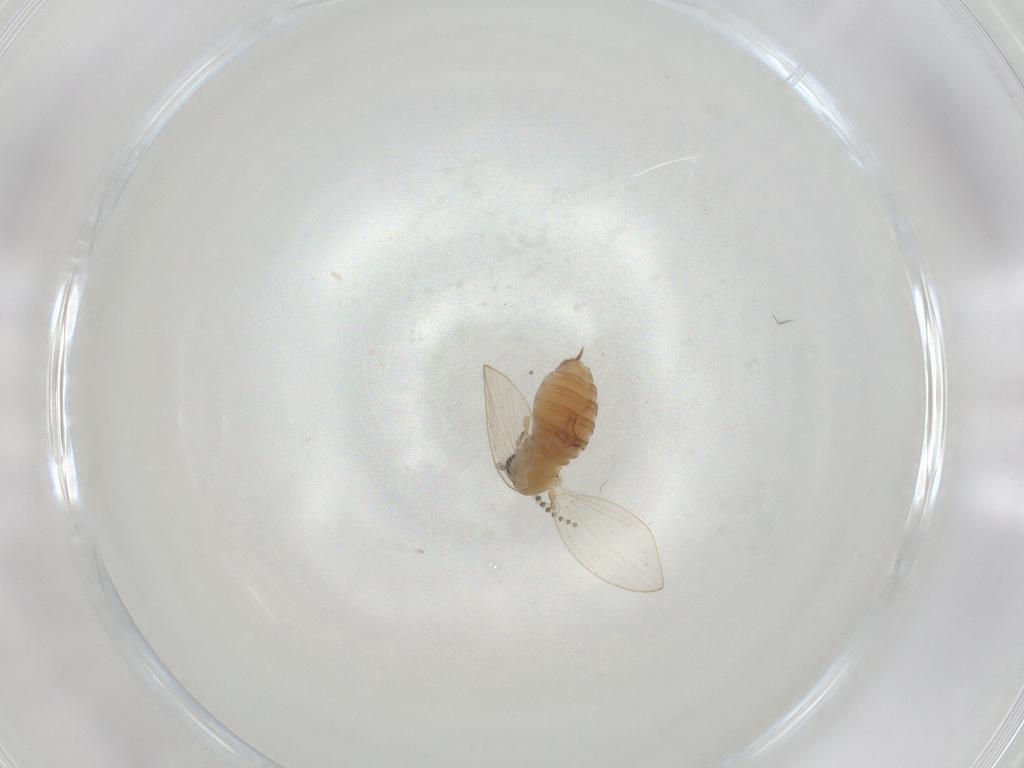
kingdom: Animalia
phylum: Arthropoda
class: Insecta
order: Diptera
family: Psychodidae
